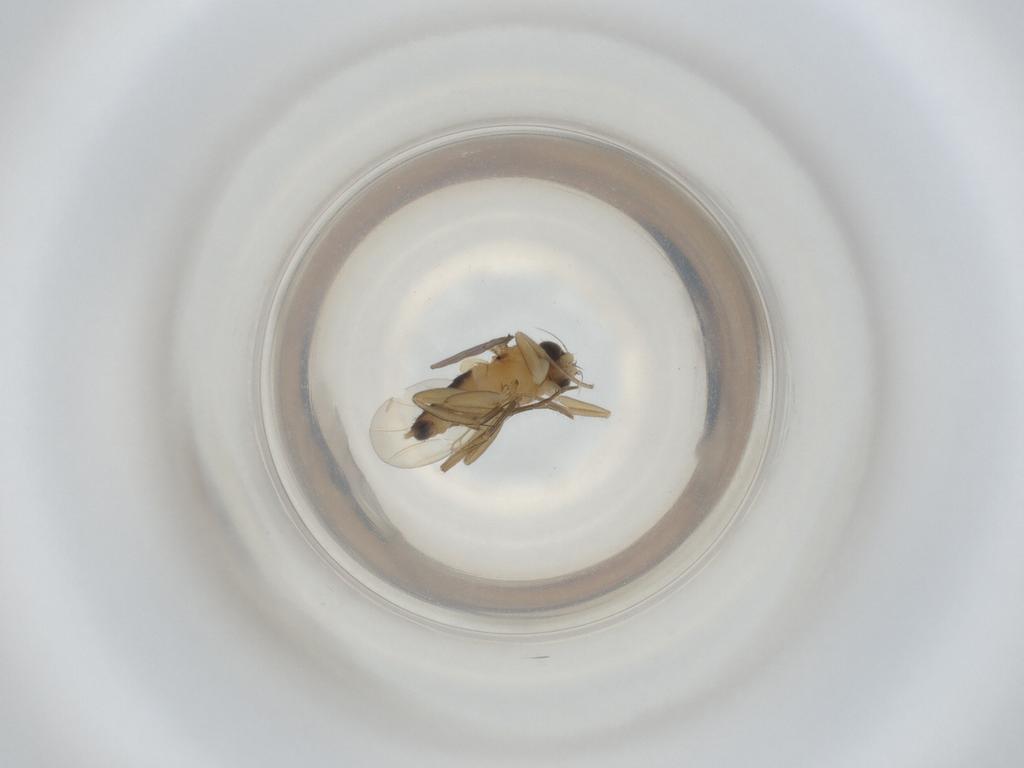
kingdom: Animalia
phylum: Arthropoda
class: Insecta
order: Diptera
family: Phoridae
